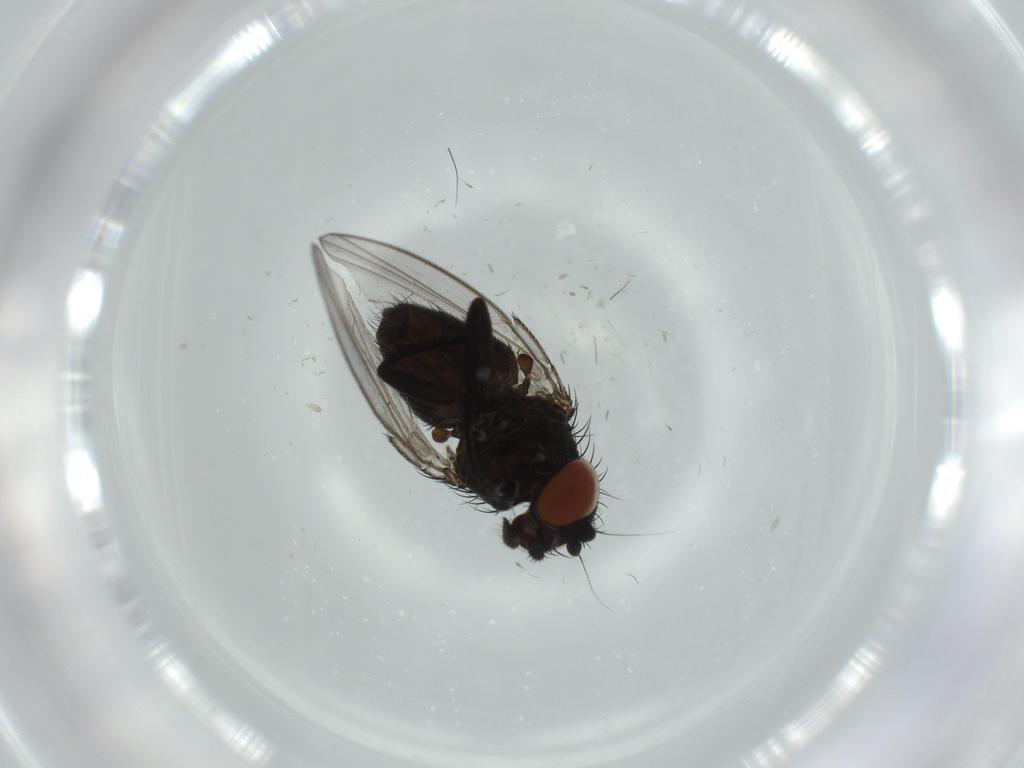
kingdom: Animalia
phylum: Arthropoda
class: Insecta
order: Diptera
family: Milichiidae
